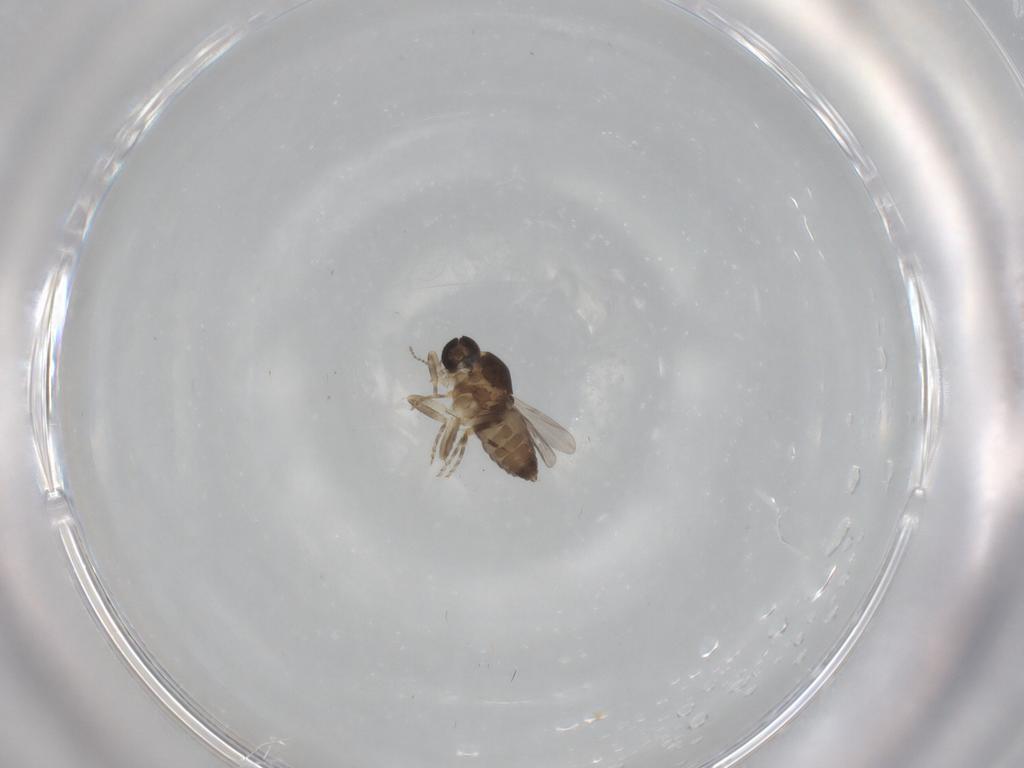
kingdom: Animalia
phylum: Arthropoda
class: Insecta
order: Diptera
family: Ceratopogonidae
